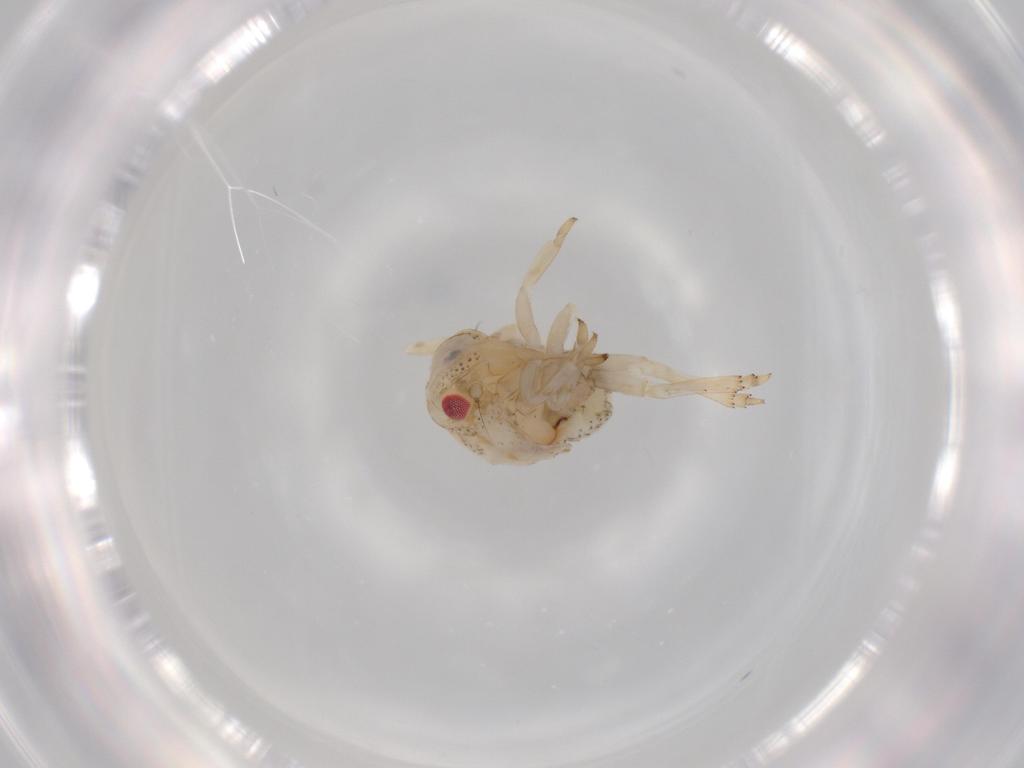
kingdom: Animalia
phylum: Arthropoda
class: Insecta
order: Hemiptera
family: Acanaloniidae
